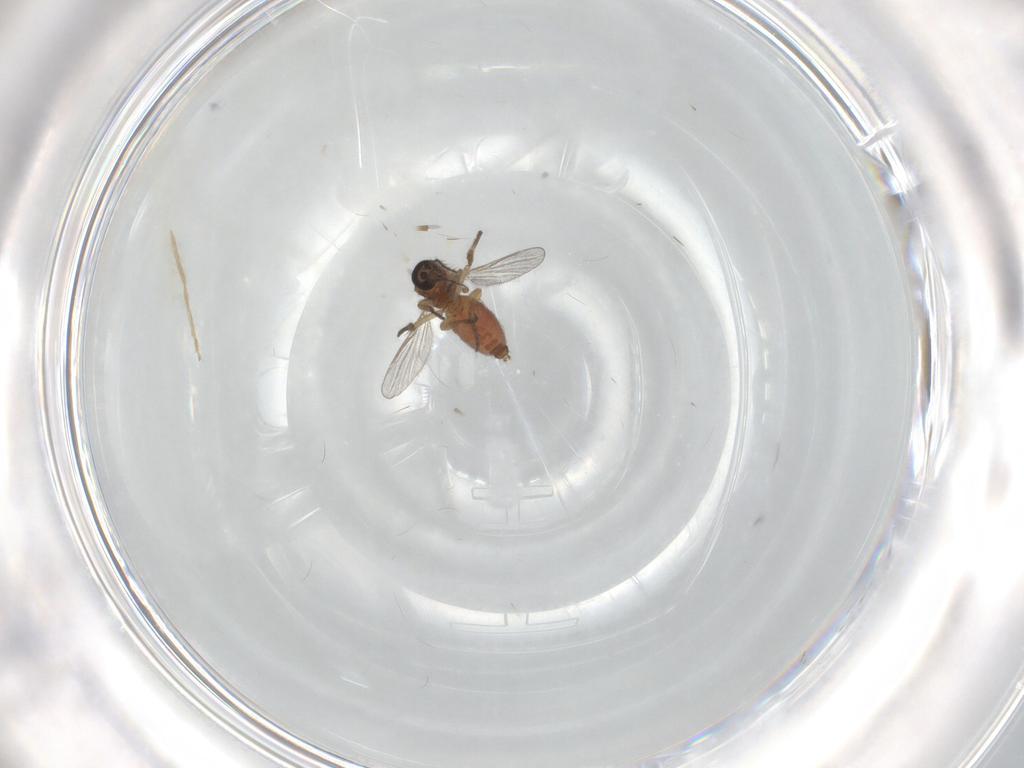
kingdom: Animalia
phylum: Arthropoda
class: Insecta
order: Diptera
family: Chironomidae
